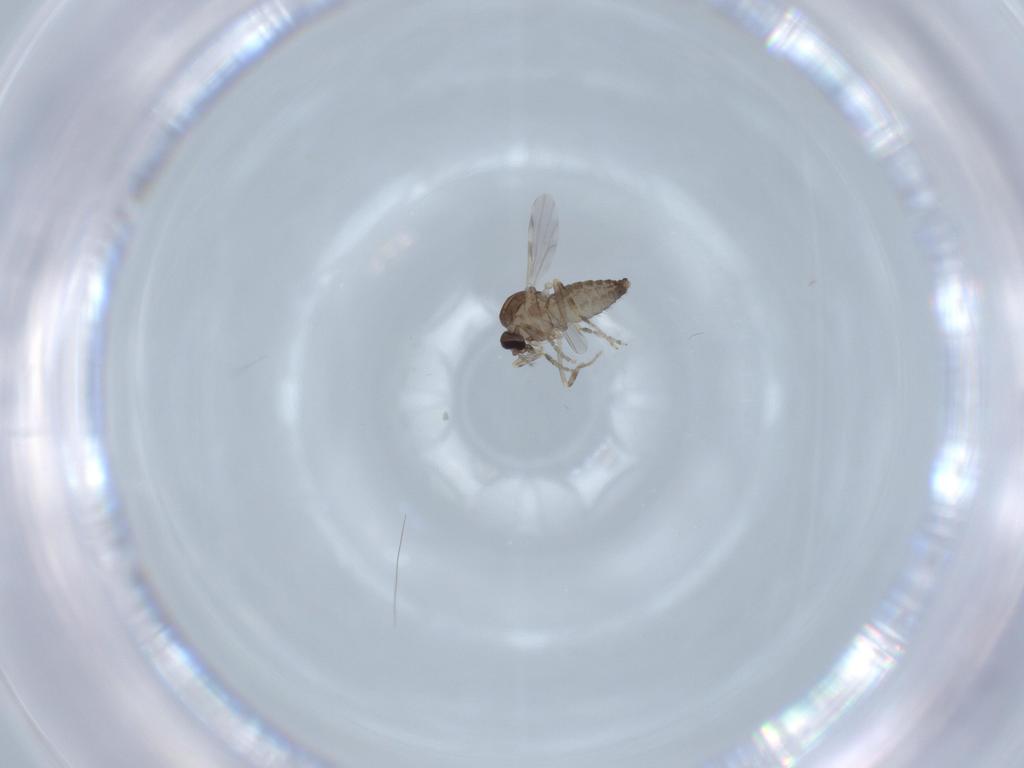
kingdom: Animalia
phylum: Arthropoda
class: Insecta
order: Diptera
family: Ceratopogonidae
